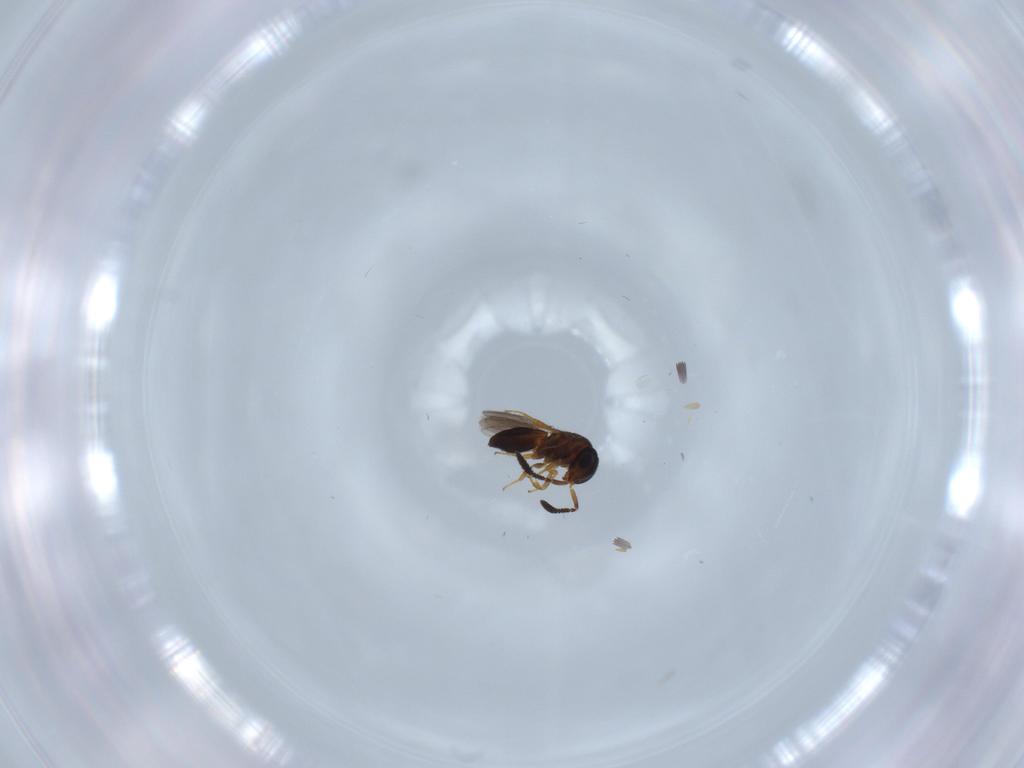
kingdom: Animalia
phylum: Arthropoda
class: Insecta
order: Hymenoptera
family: Scelionidae
